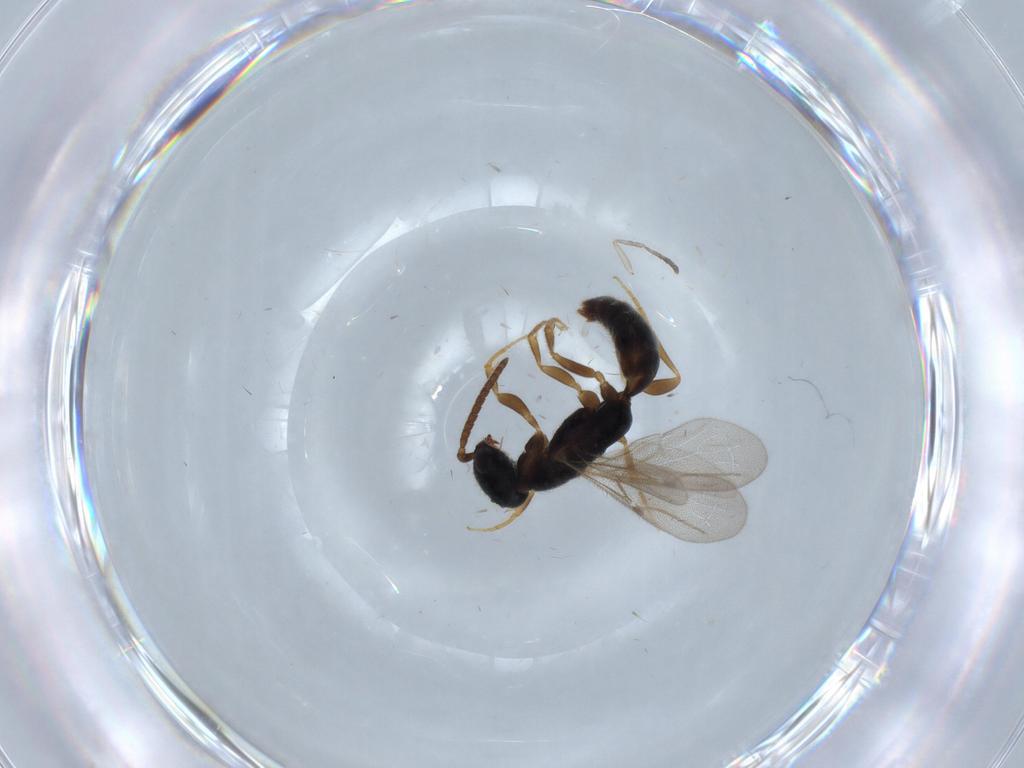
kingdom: Animalia
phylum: Arthropoda
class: Insecta
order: Hymenoptera
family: Bethylidae
